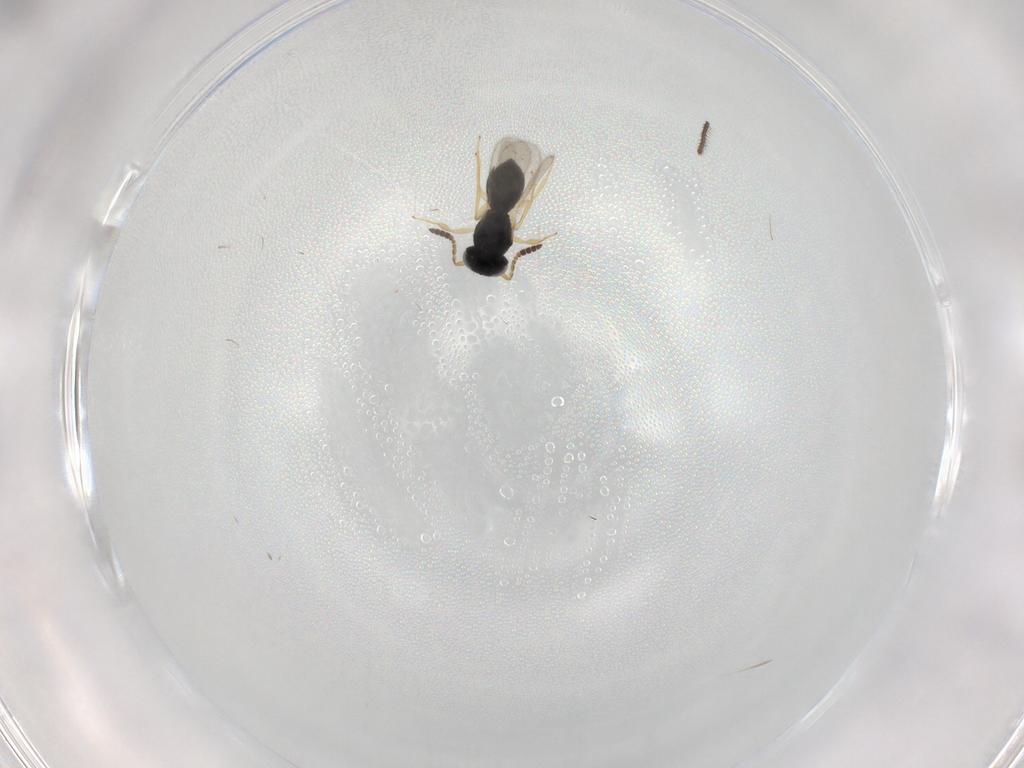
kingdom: Animalia
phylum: Arthropoda
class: Insecta
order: Hymenoptera
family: Scelionidae
